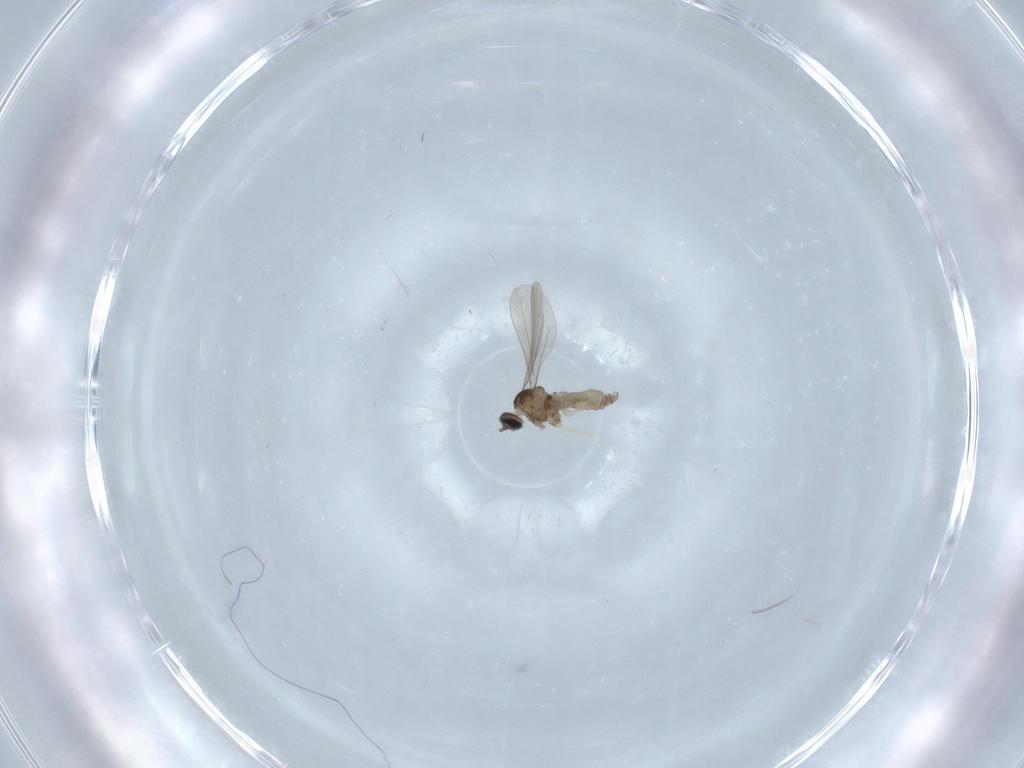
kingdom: Animalia
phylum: Arthropoda
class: Insecta
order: Diptera
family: Chironomidae
